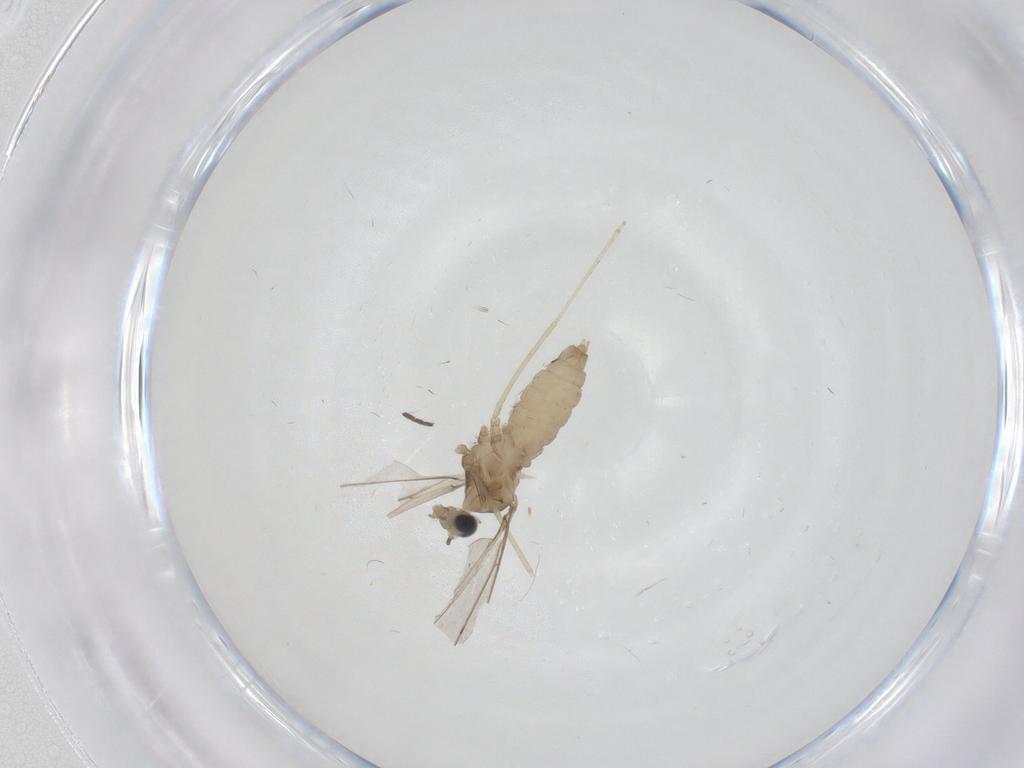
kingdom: Animalia
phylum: Arthropoda
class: Insecta
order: Diptera
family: Cecidomyiidae
